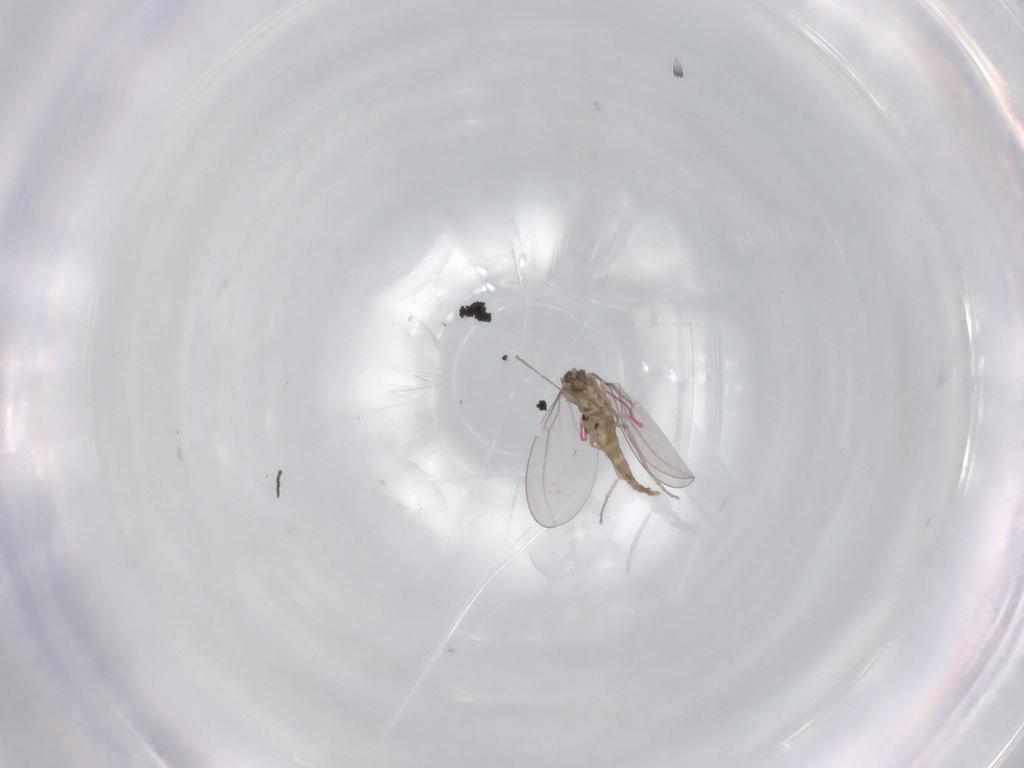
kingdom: Animalia
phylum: Arthropoda
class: Insecta
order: Diptera
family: Cecidomyiidae
